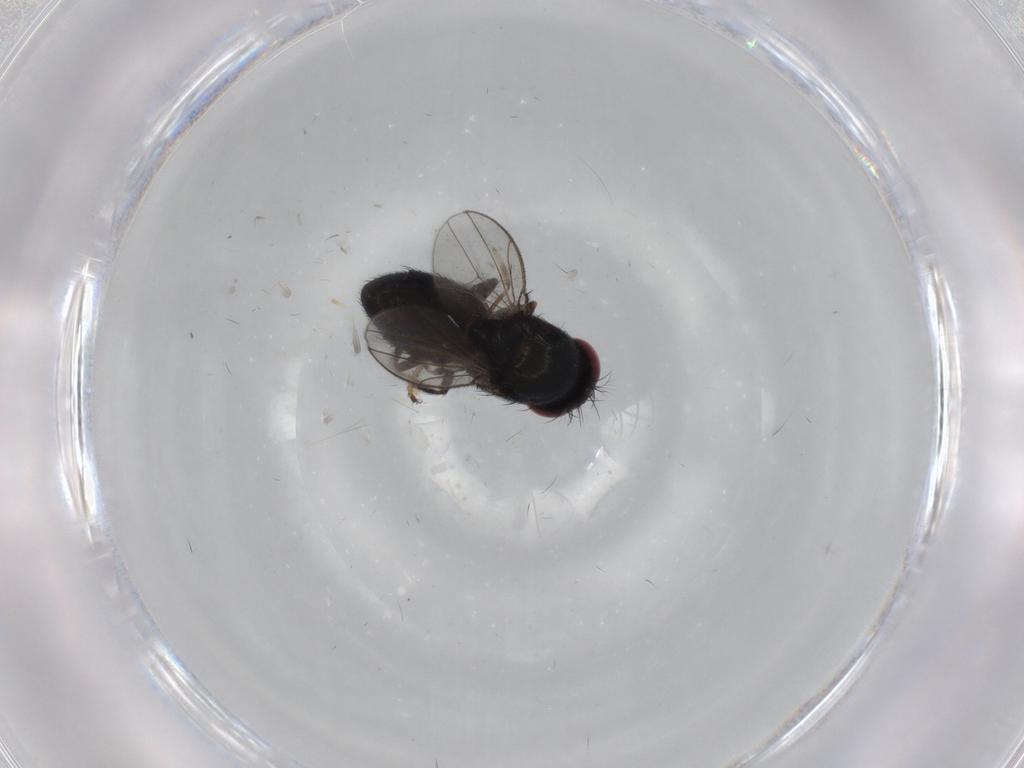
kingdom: Animalia
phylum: Arthropoda
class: Insecta
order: Diptera
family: Ephydridae
